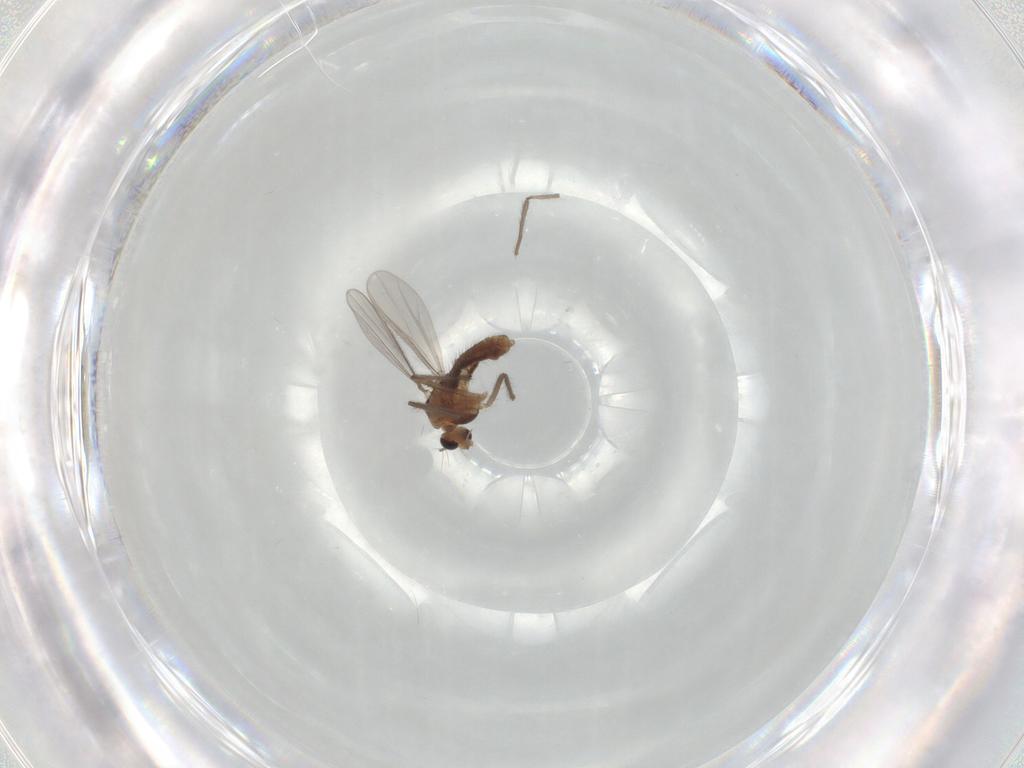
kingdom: Animalia
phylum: Arthropoda
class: Insecta
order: Diptera
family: Chironomidae
